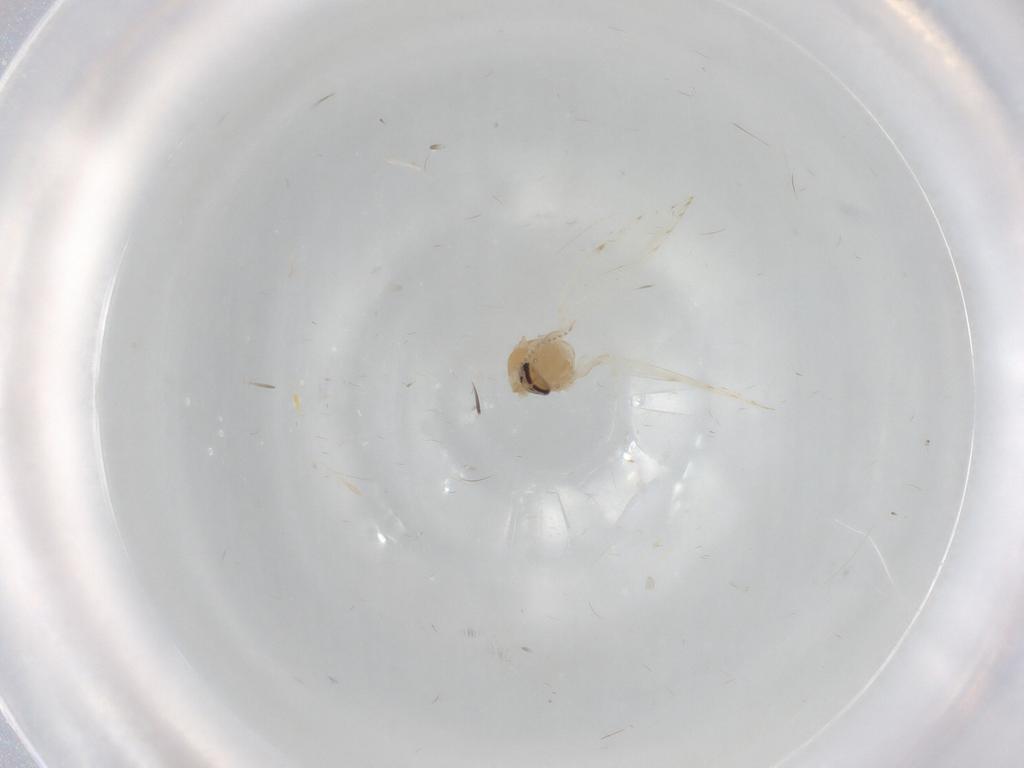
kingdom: Animalia
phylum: Arthropoda
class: Insecta
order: Diptera
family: Psychodidae
